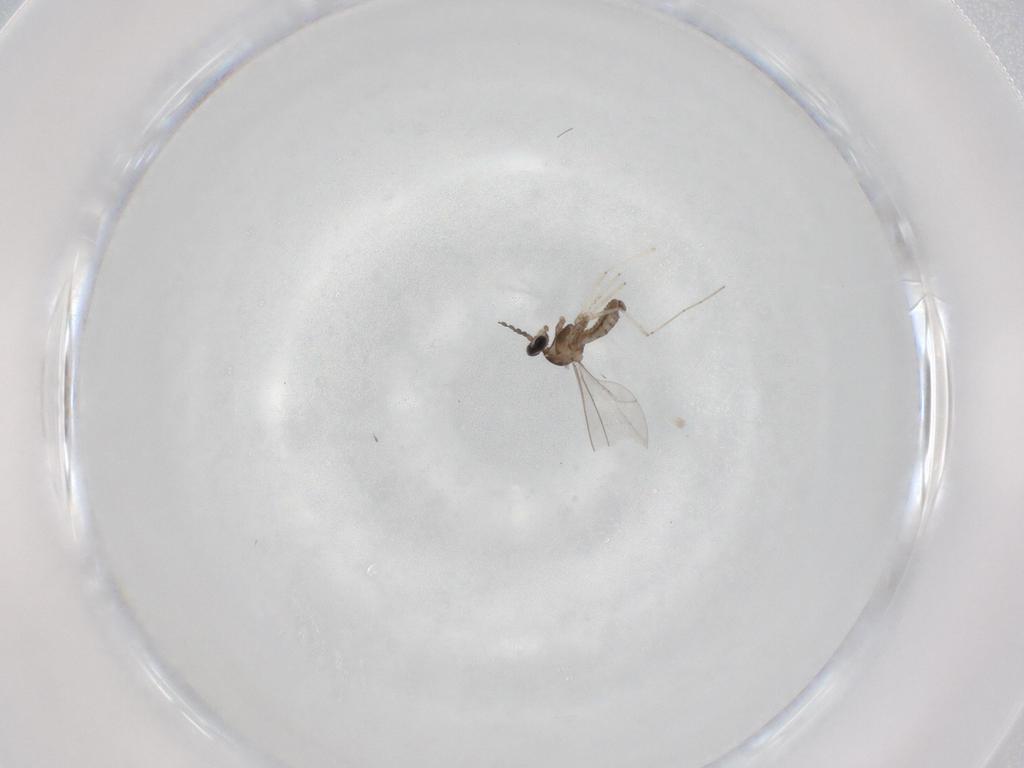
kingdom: Animalia
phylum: Arthropoda
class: Insecta
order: Diptera
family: Cecidomyiidae
